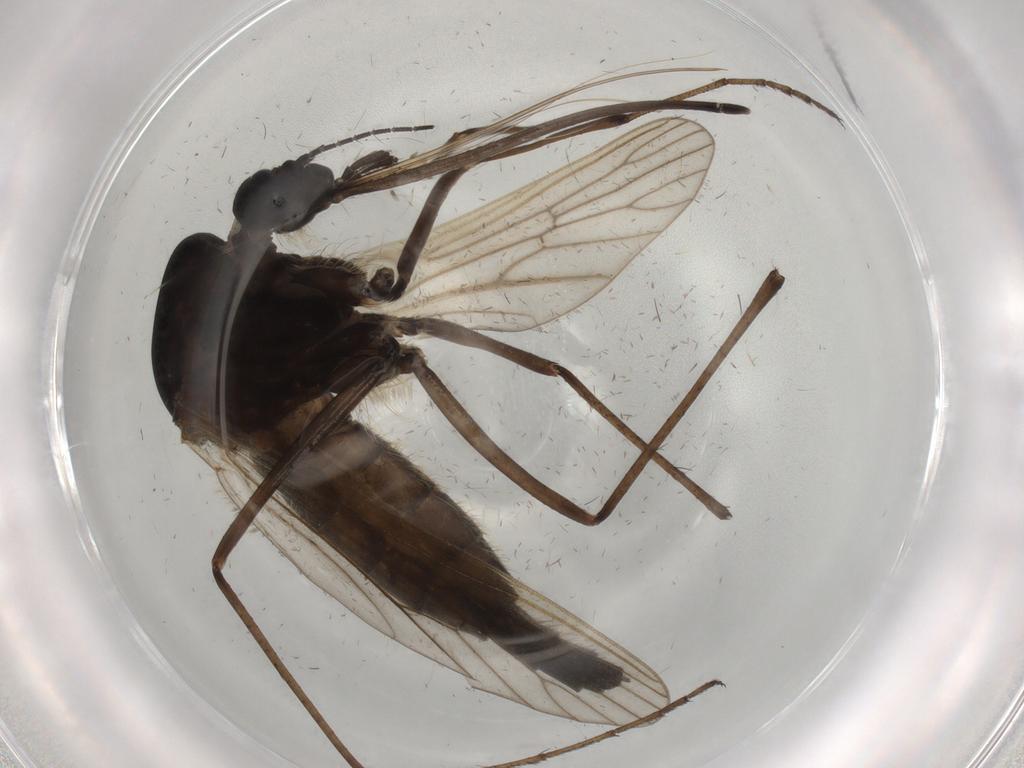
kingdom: Animalia
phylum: Arthropoda
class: Insecta
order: Diptera
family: Chironomidae
